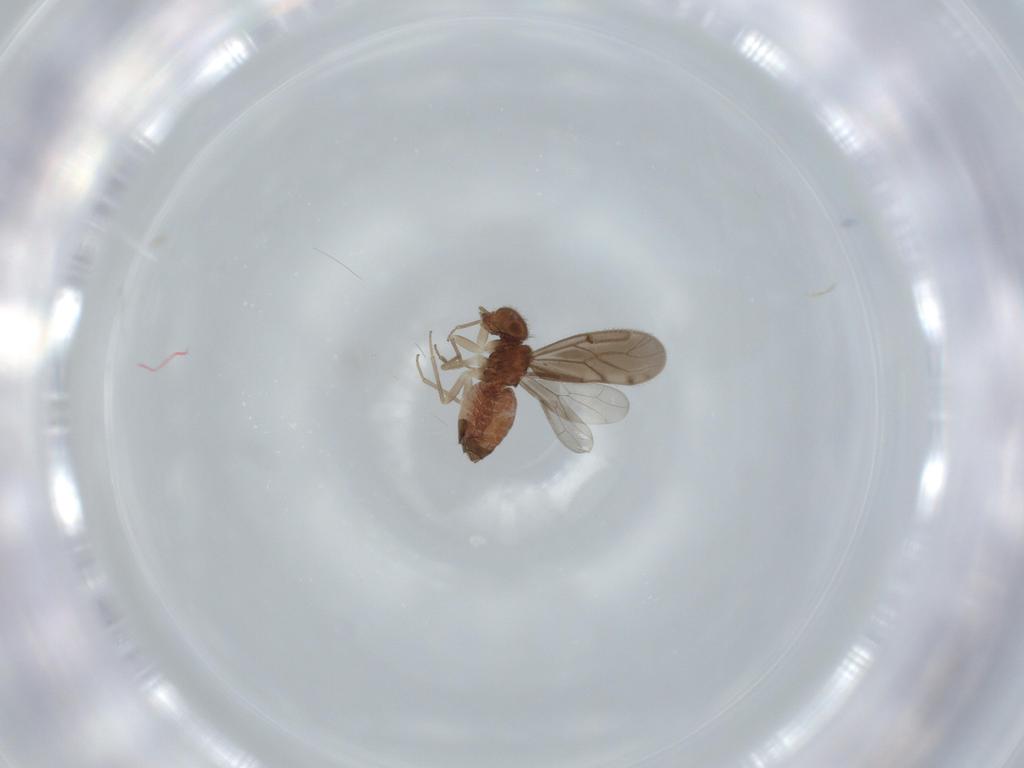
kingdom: Animalia
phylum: Arthropoda
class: Insecta
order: Psocodea
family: Ectopsocidae
